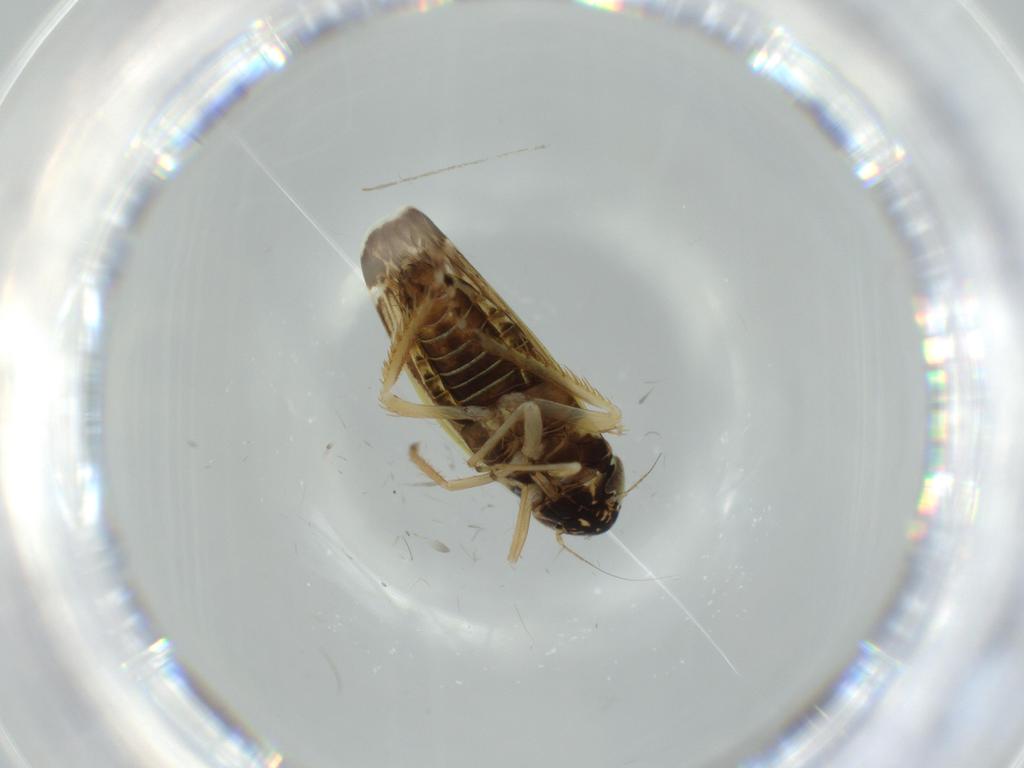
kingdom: Animalia
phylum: Arthropoda
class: Insecta
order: Hemiptera
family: Cicadellidae
